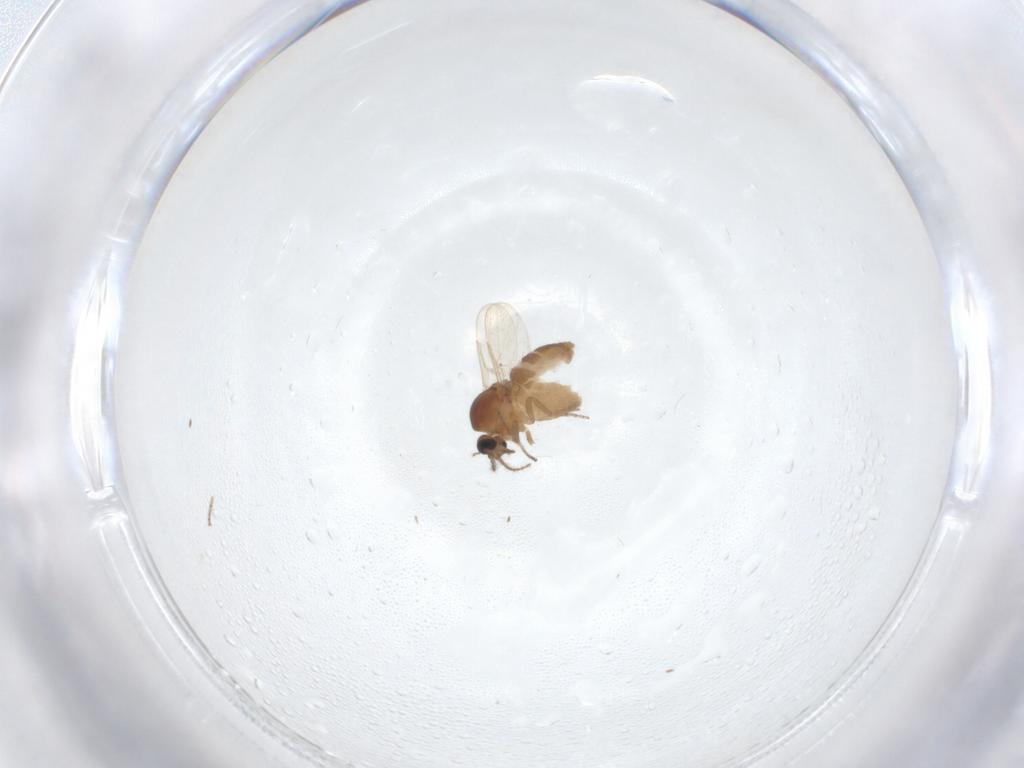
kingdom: Animalia
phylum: Arthropoda
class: Insecta
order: Diptera
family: Ceratopogonidae
